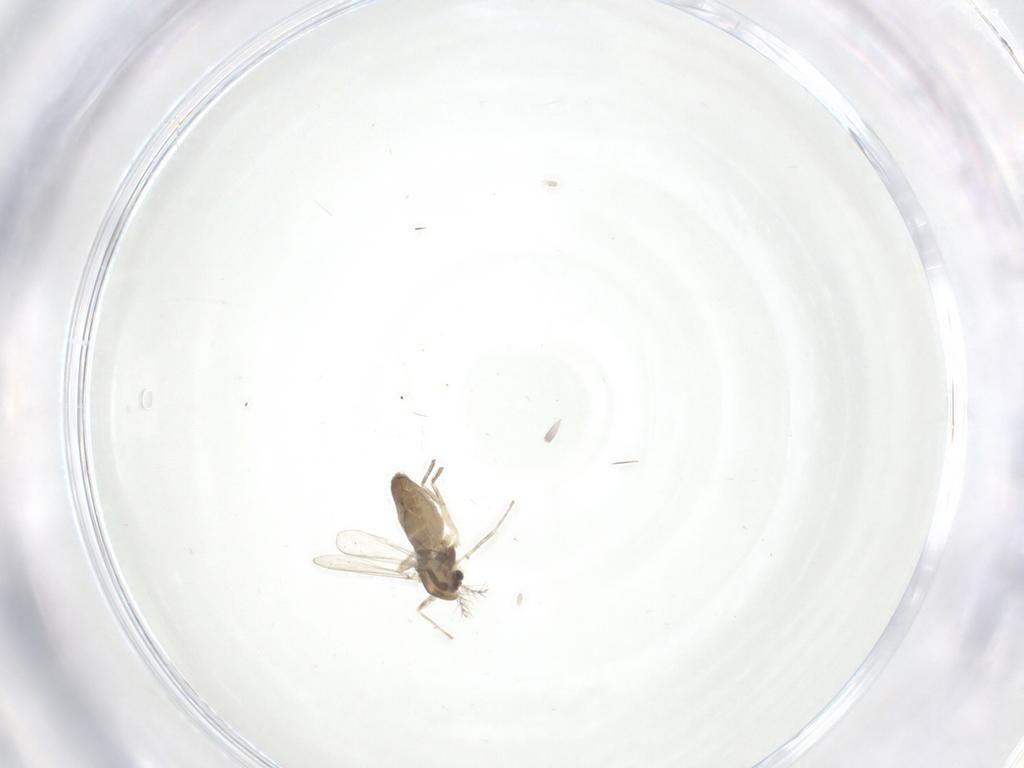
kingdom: Animalia
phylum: Arthropoda
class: Insecta
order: Diptera
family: Chironomidae
